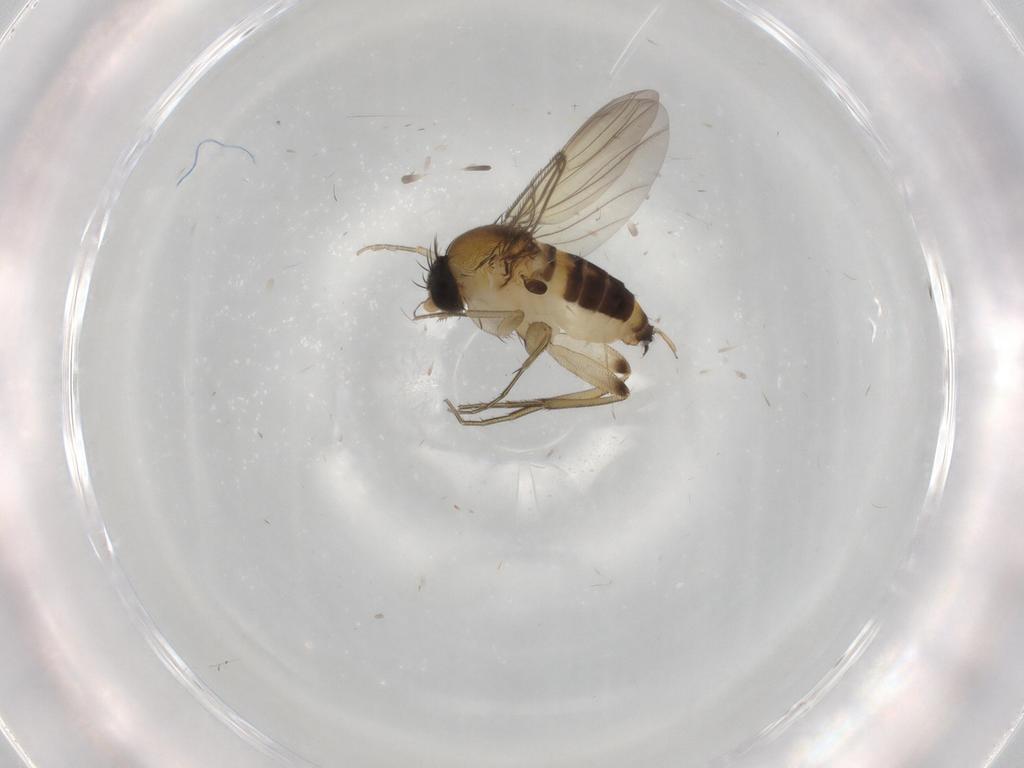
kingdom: Animalia
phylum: Arthropoda
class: Insecta
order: Diptera
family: Phoridae
